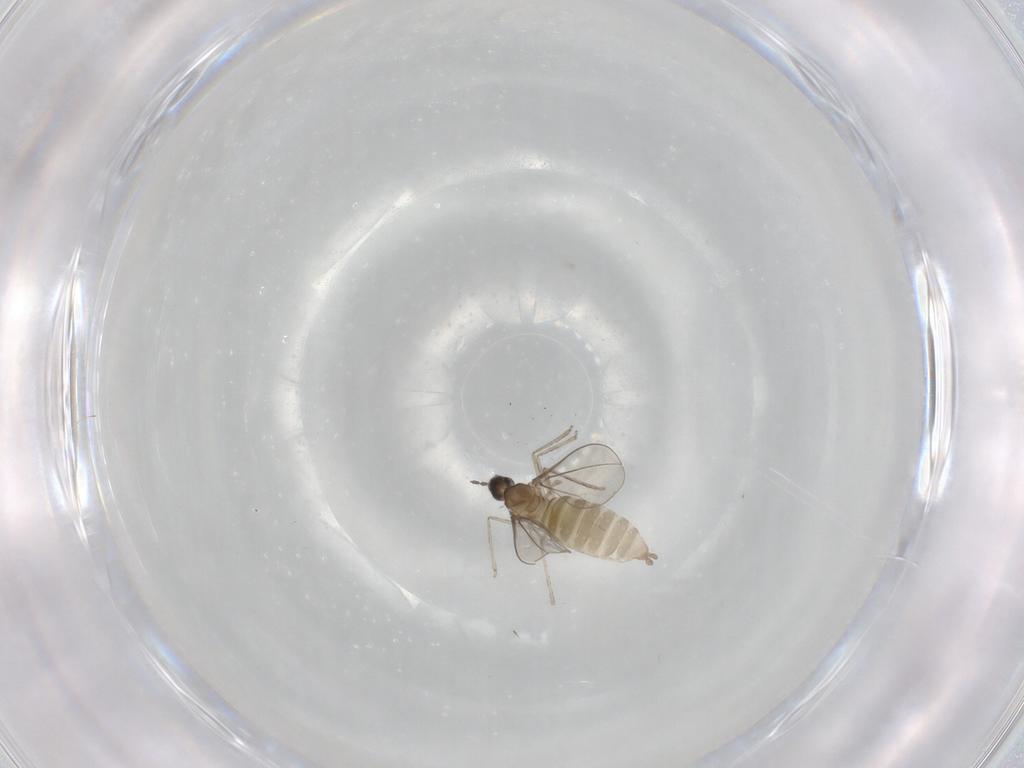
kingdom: Animalia
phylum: Arthropoda
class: Insecta
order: Diptera
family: Cecidomyiidae
